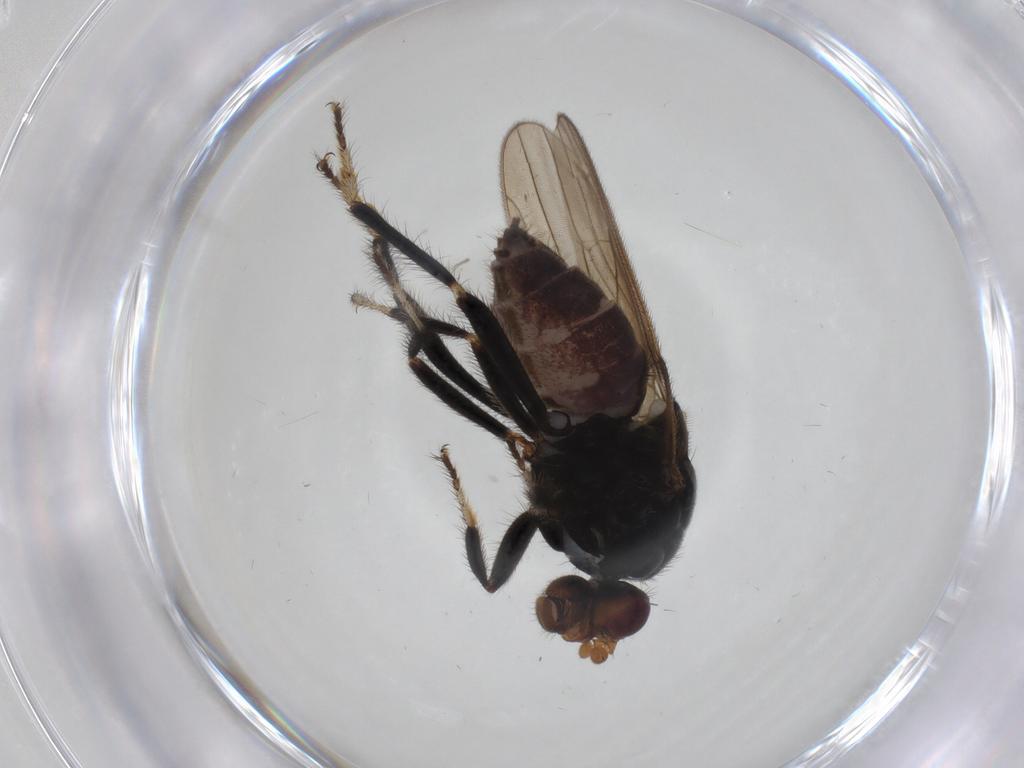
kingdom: Animalia
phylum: Arthropoda
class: Insecta
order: Diptera
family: Sphaeroceridae
